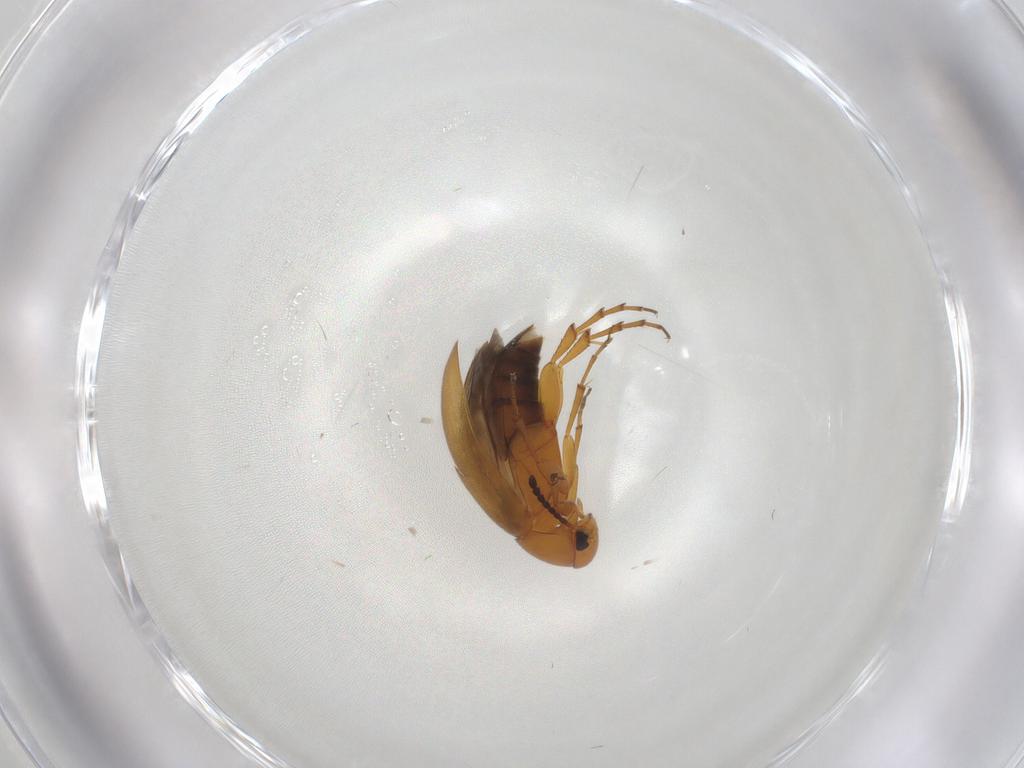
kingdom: Animalia
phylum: Arthropoda
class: Insecta
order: Coleoptera
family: Scraptiidae
